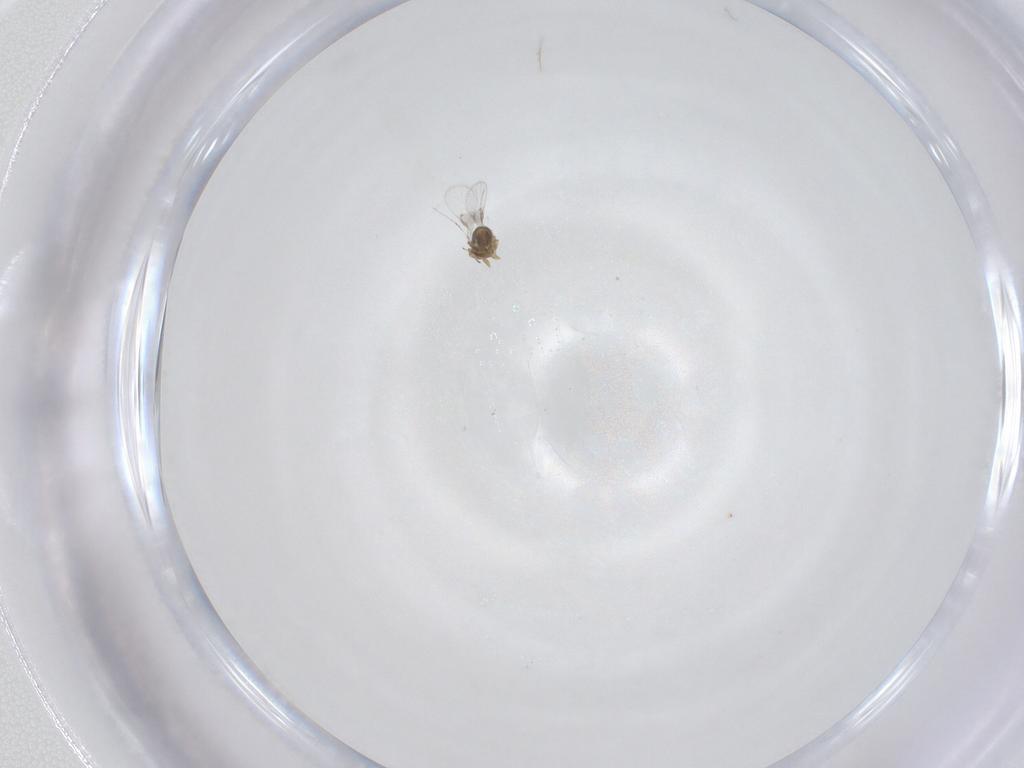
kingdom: Animalia
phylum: Arthropoda
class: Insecta
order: Hymenoptera
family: Trichogrammatidae
